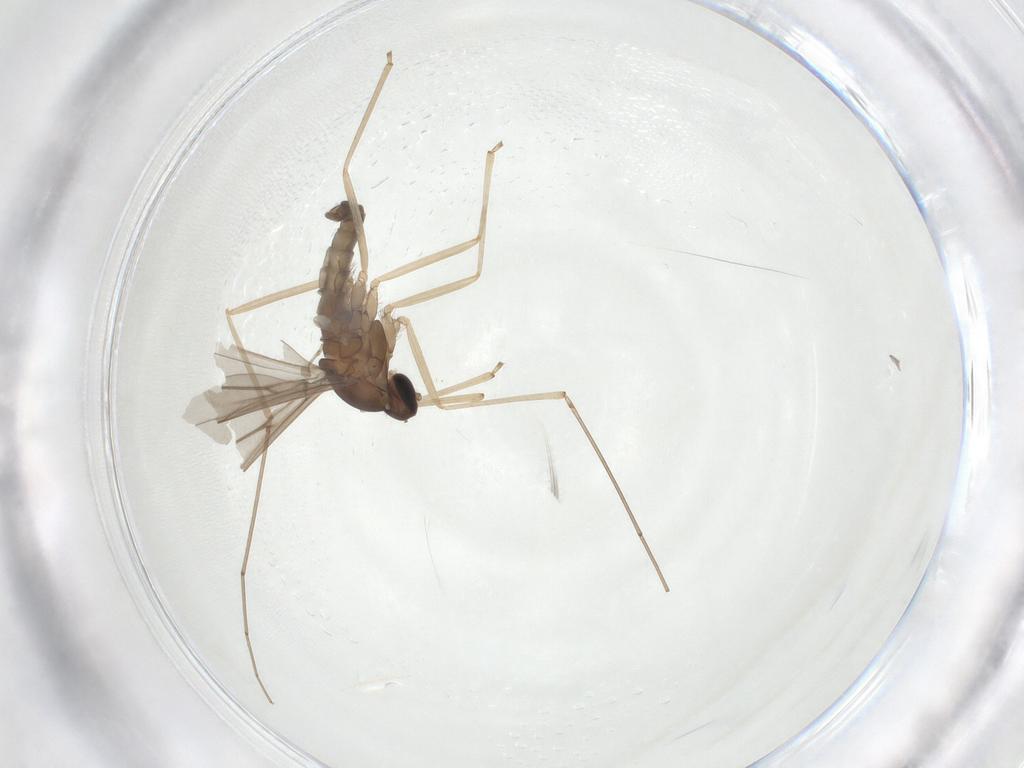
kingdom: Animalia
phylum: Arthropoda
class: Insecta
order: Diptera
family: Cecidomyiidae
